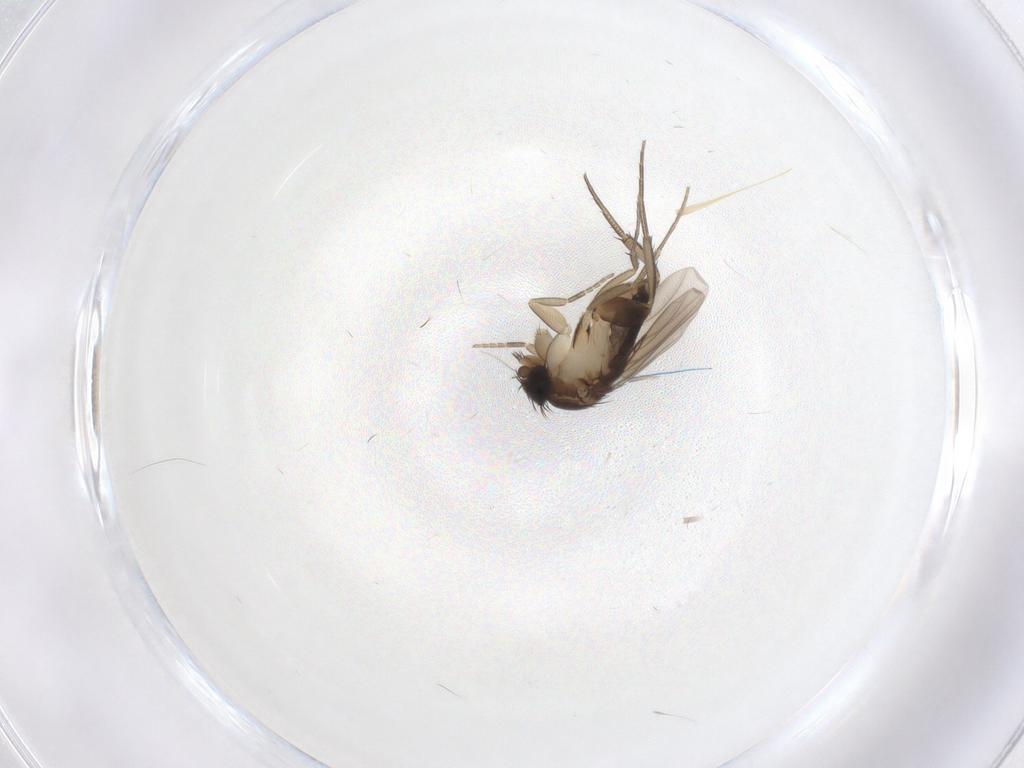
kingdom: Animalia
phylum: Arthropoda
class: Insecta
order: Diptera
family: Phoridae
